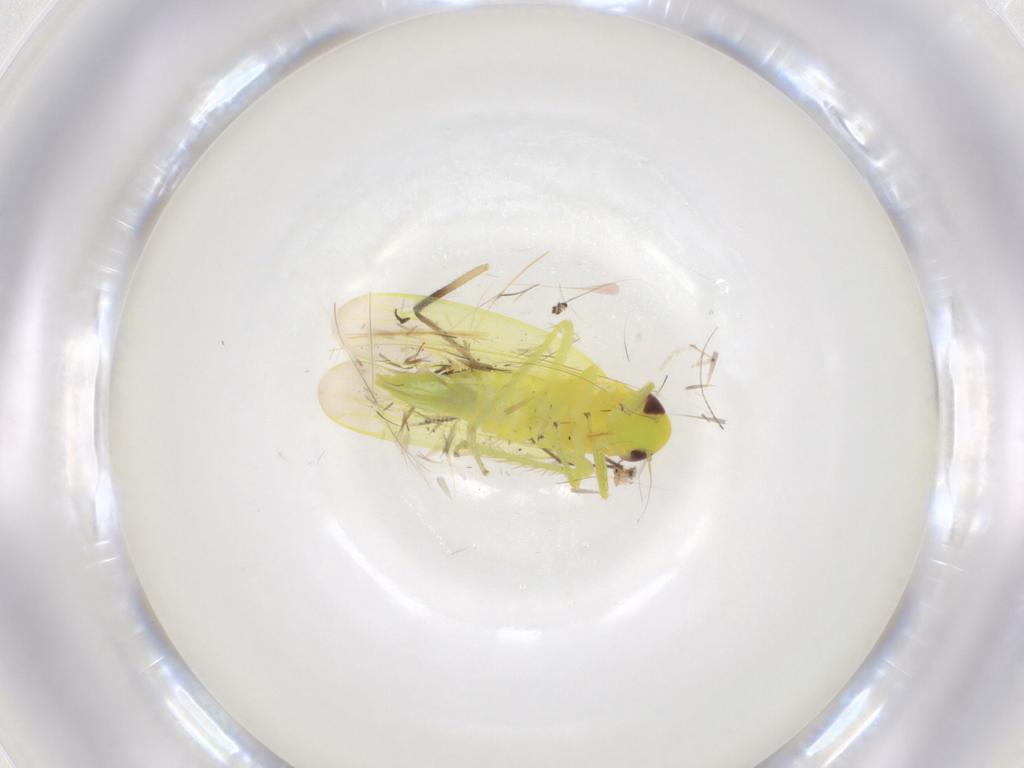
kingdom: Animalia
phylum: Arthropoda
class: Insecta
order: Hemiptera
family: Cicadellidae
